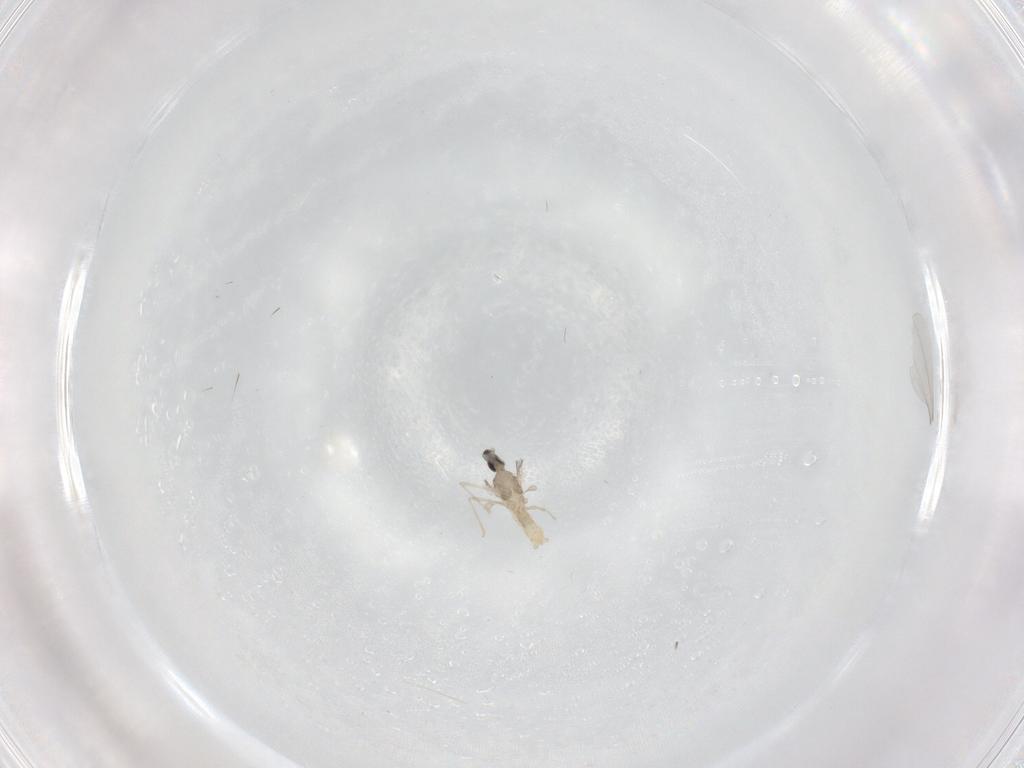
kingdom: Animalia
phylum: Arthropoda
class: Insecta
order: Diptera
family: Cecidomyiidae
